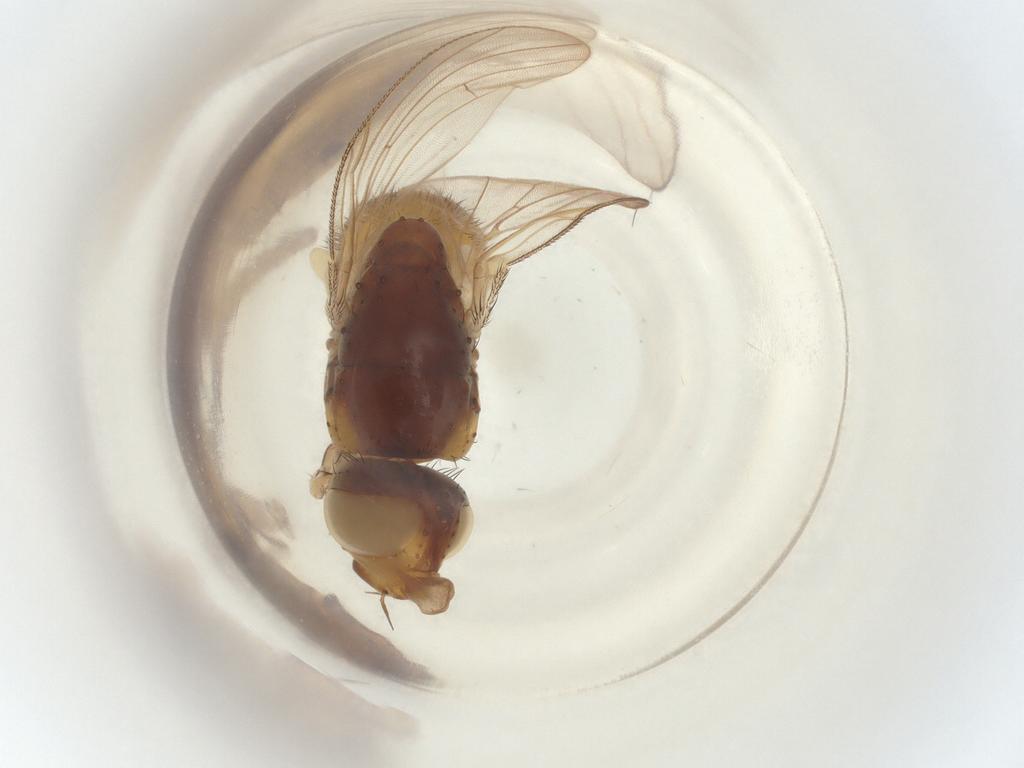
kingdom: Animalia
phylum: Arthropoda
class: Insecta
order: Diptera
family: Muscidae
